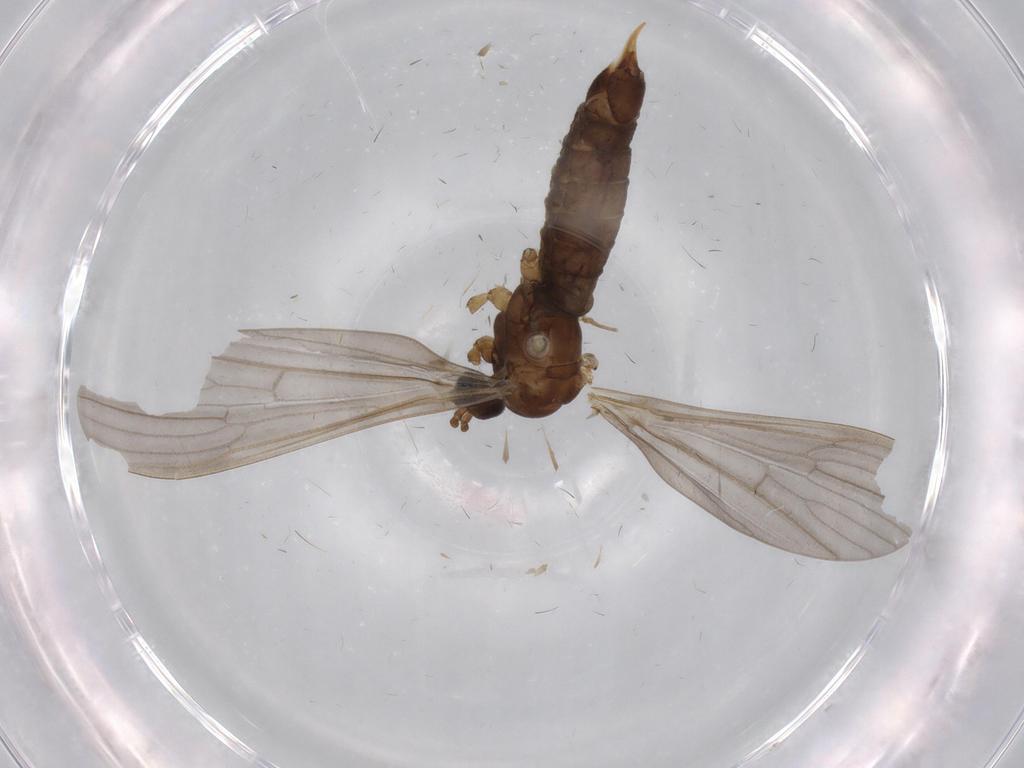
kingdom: Animalia
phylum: Arthropoda
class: Insecta
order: Diptera
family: Limoniidae
